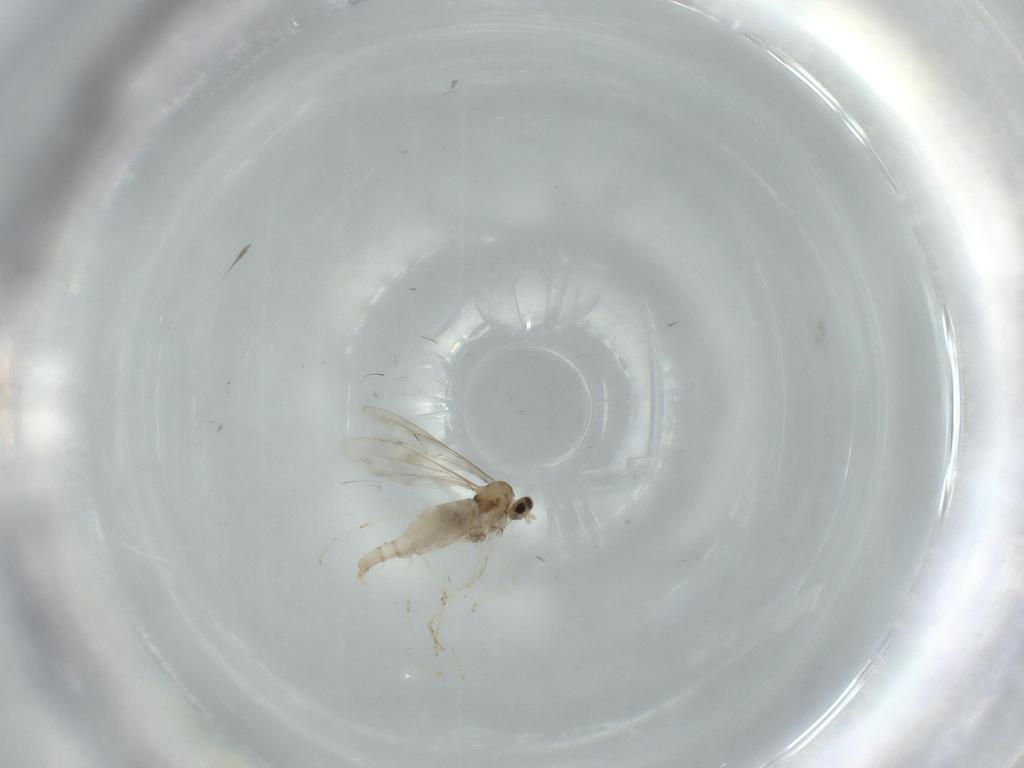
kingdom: Animalia
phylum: Arthropoda
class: Insecta
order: Diptera
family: Cecidomyiidae
